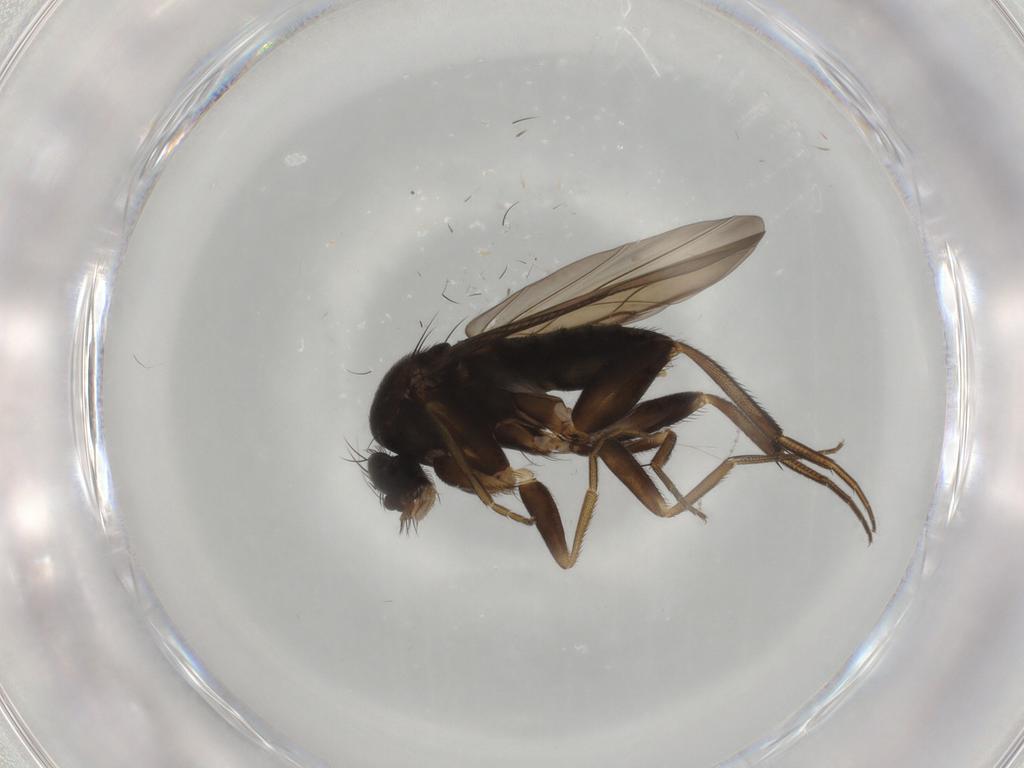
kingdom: Animalia
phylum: Arthropoda
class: Insecta
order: Diptera
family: Phoridae
